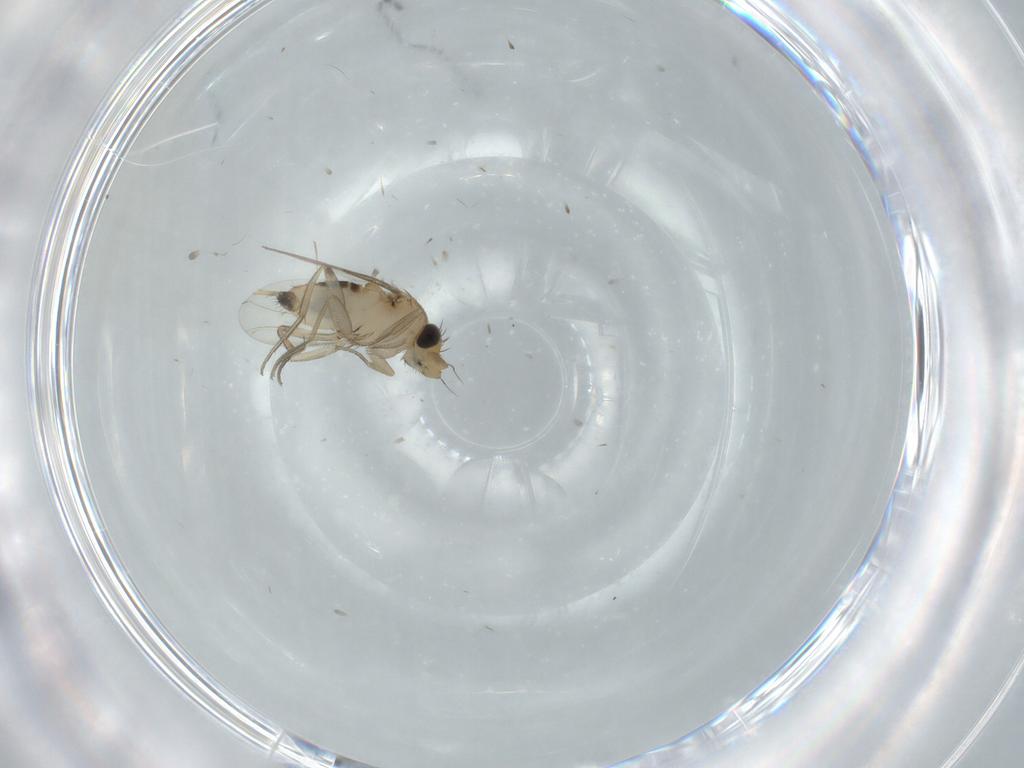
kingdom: Animalia
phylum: Arthropoda
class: Insecta
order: Diptera
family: Phoridae
